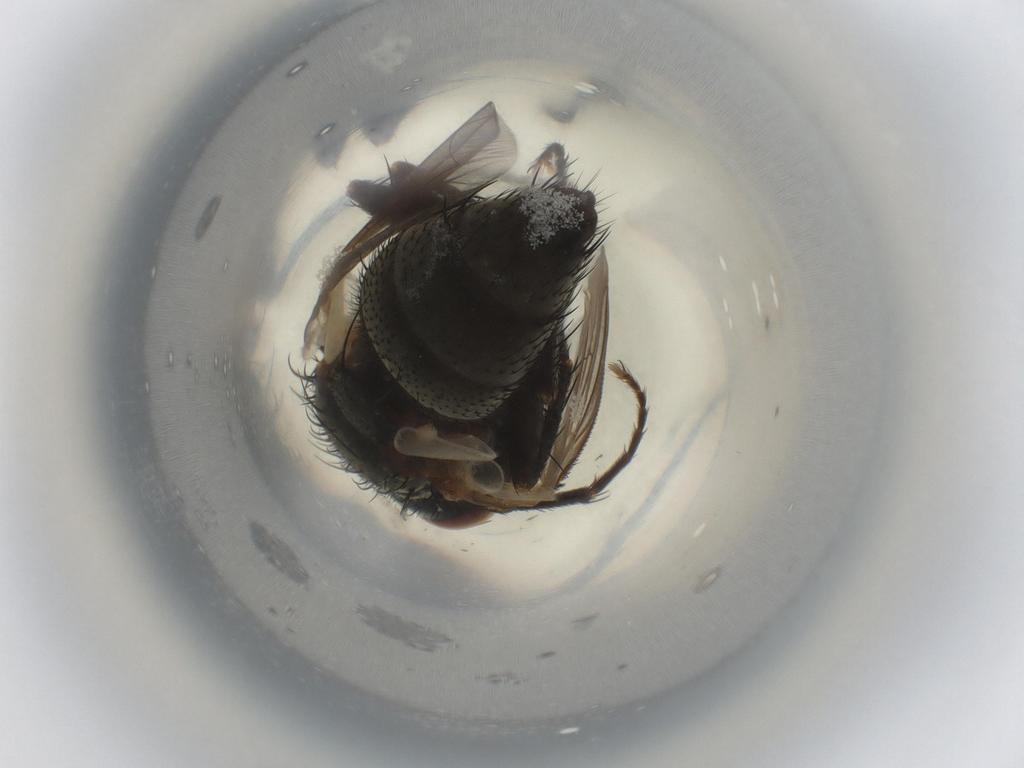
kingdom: Animalia
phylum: Arthropoda
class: Insecta
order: Diptera
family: Tachinidae
